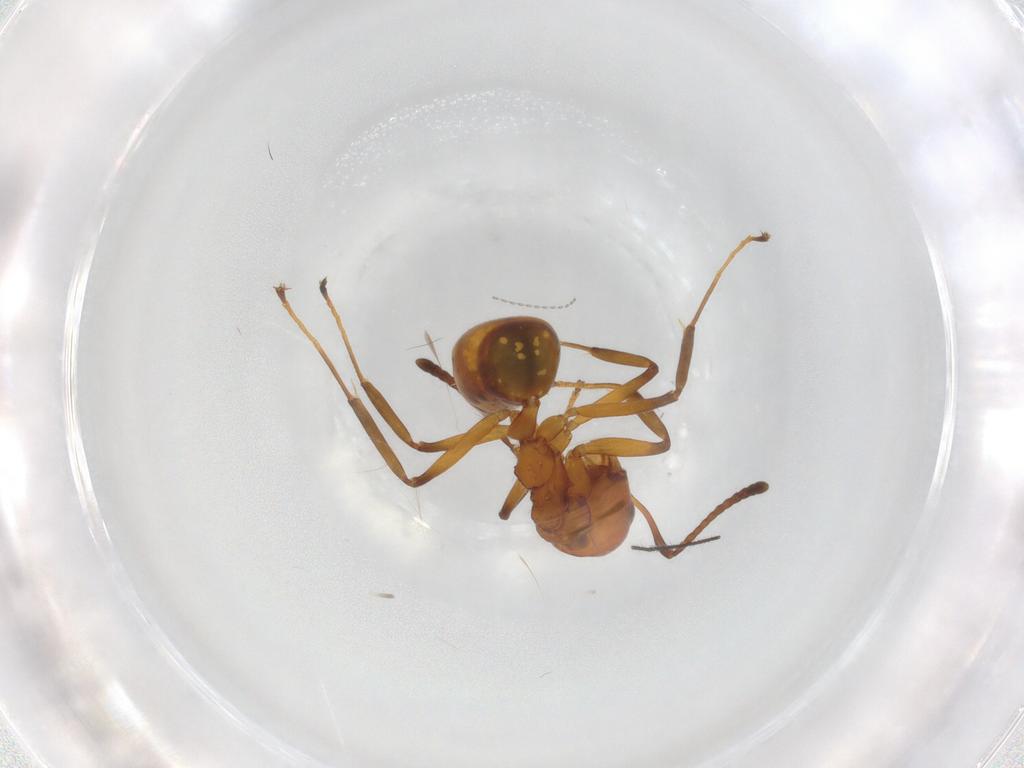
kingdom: Animalia
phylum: Arthropoda
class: Insecta
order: Hymenoptera
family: Formicidae
